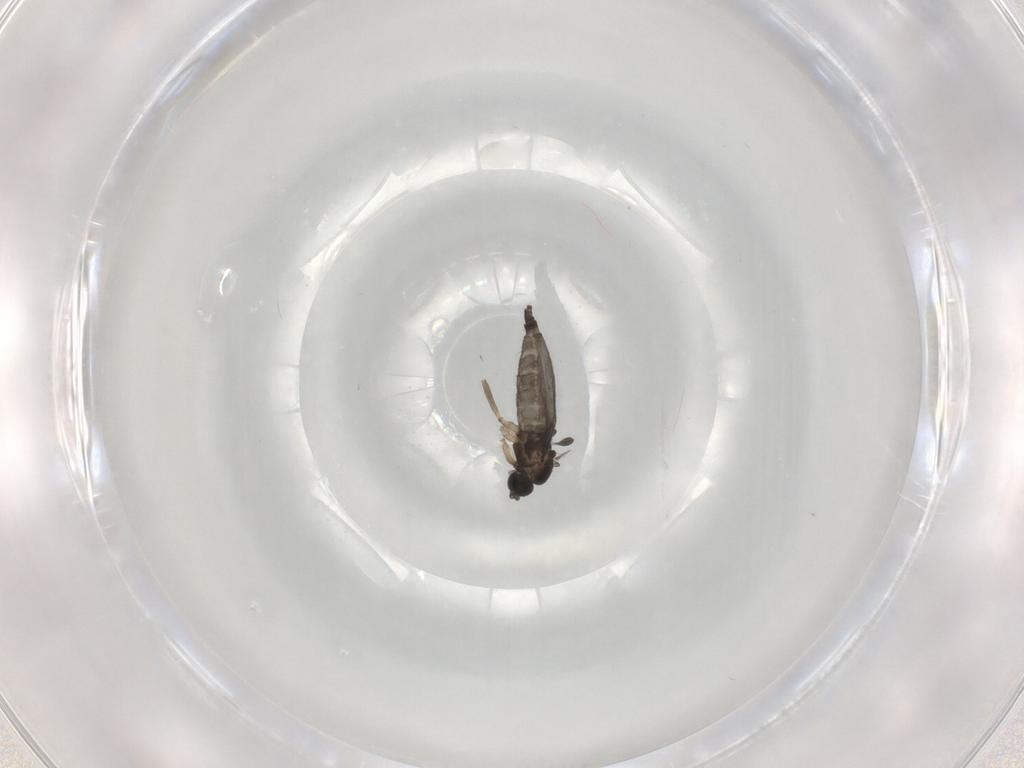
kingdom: Animalia
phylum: Arthropoda
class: Insecta
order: Diptera
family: Sciaridae
